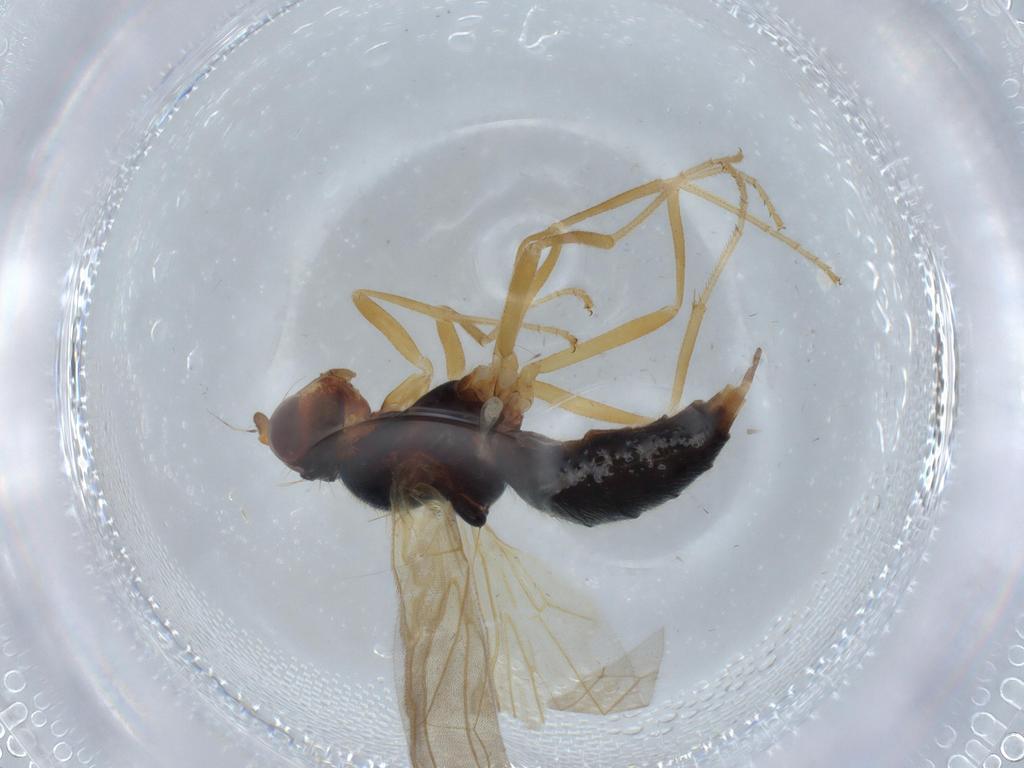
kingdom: Animalia
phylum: Arthropoda
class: Insecta
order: Diptera
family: Chironomidae
